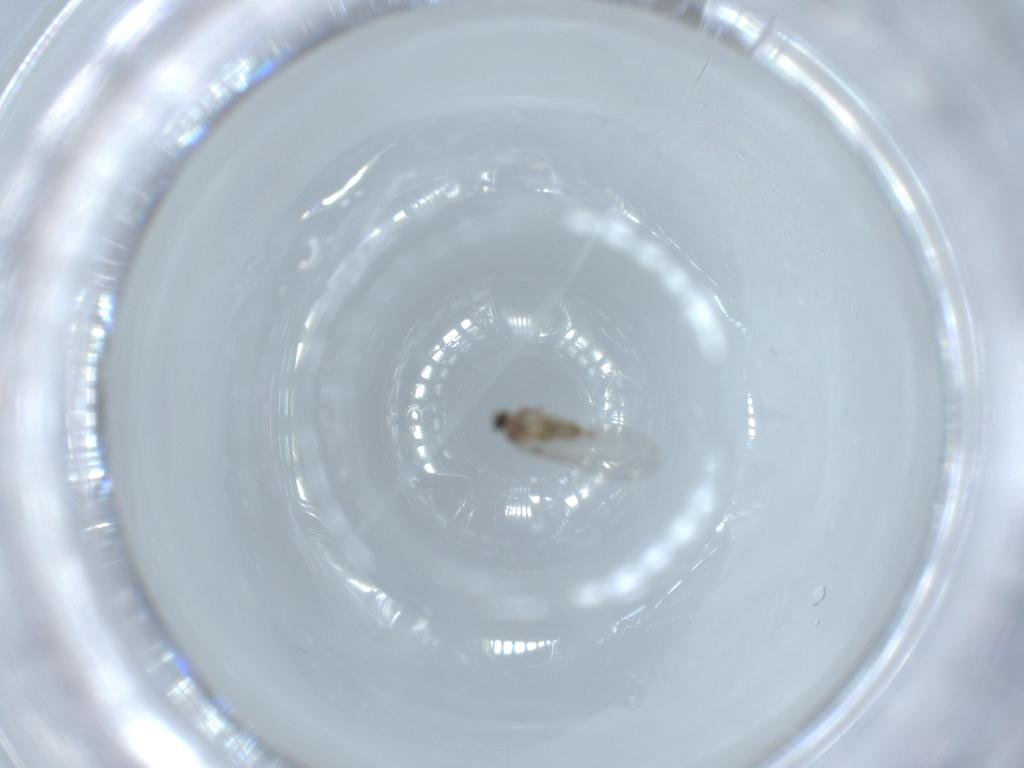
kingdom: Animalia
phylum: Arthropoda
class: Insecta
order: Diptera
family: Cecidomyiidae
